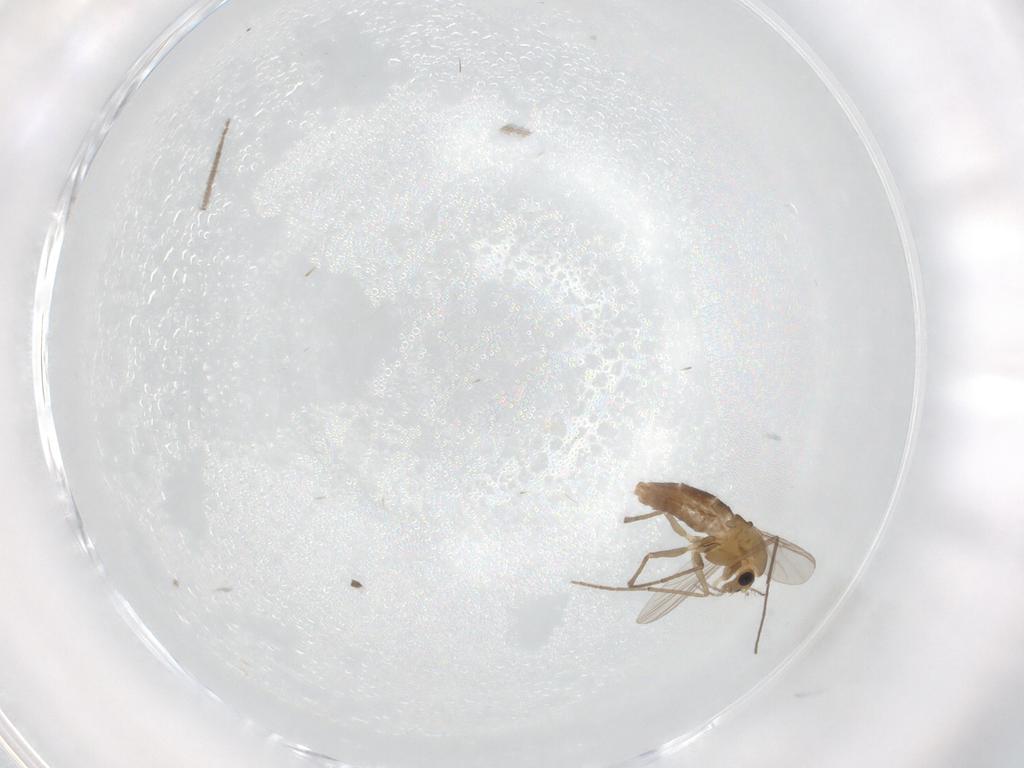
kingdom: Animalia
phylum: Arthropoda
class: Insecta
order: Diptera
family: Chironomidae
